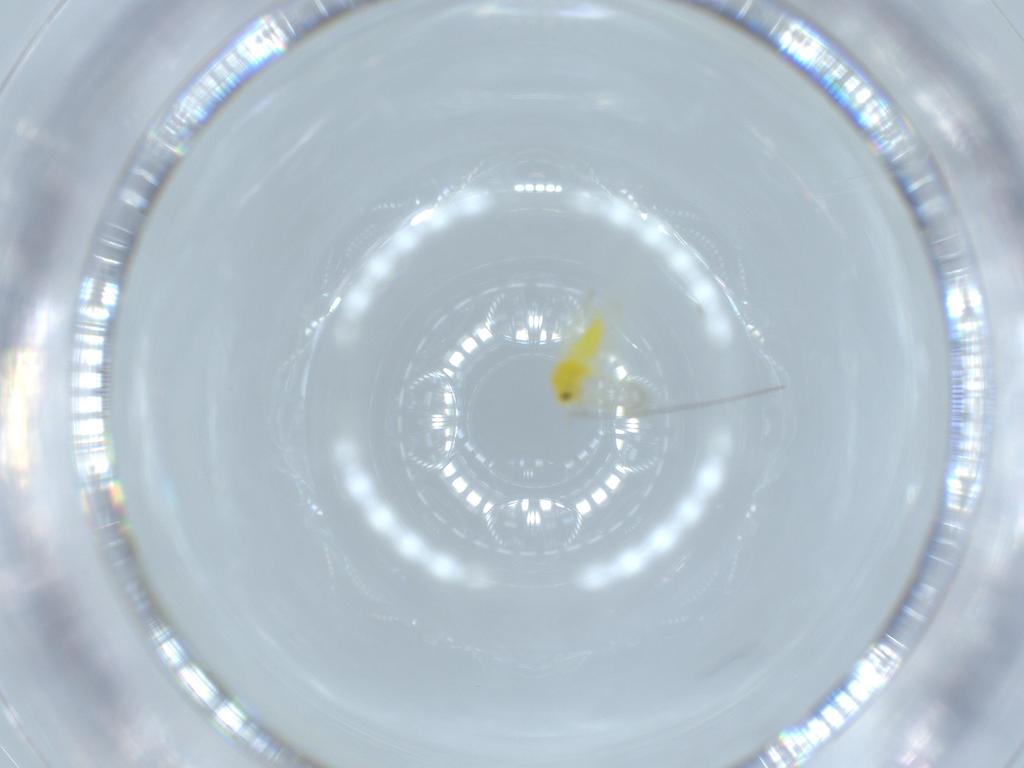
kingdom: Animalia
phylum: Arthropoda
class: Insecta
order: Hemiptera
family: Aleyrodidae
